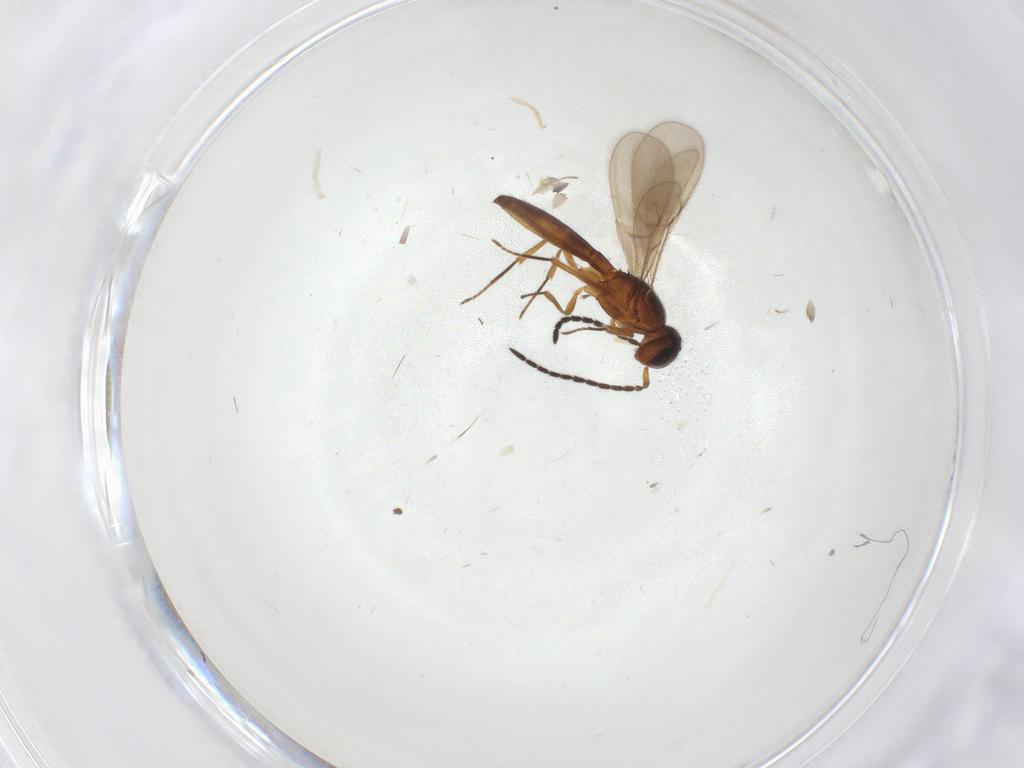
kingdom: Animalia
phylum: Arthropoda
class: Insecta
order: Hymenoptera
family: Scelionidae
